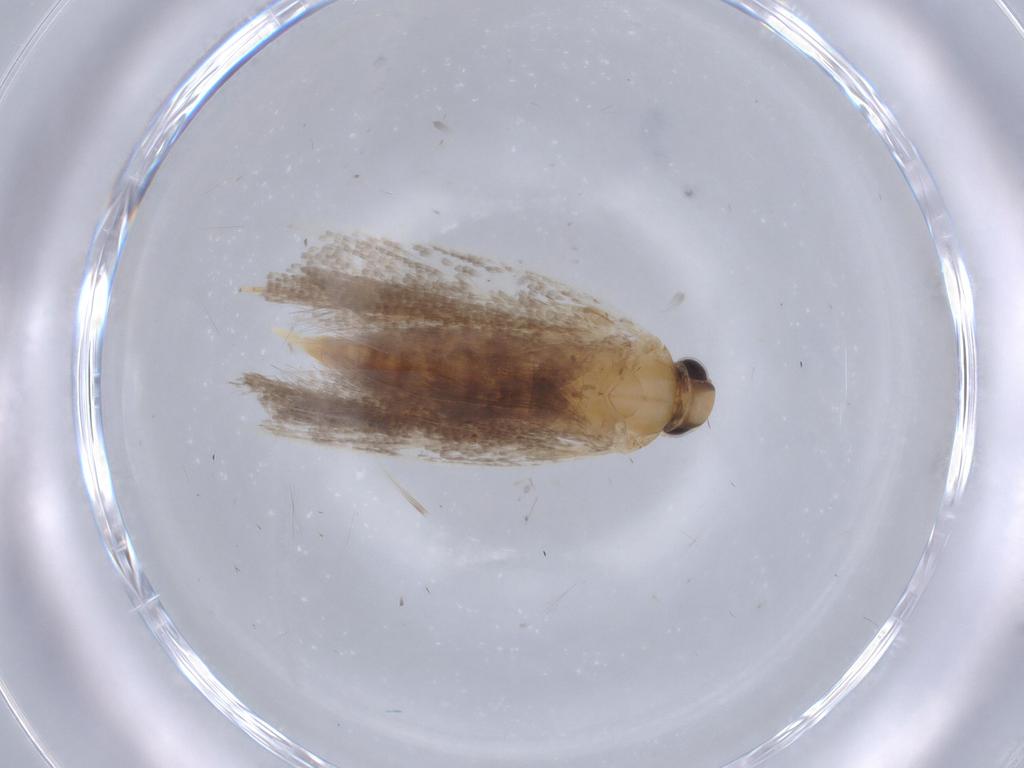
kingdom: Animalia
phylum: Arthropoda
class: Insecta
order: Lepidoptera
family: Gelechiidae
